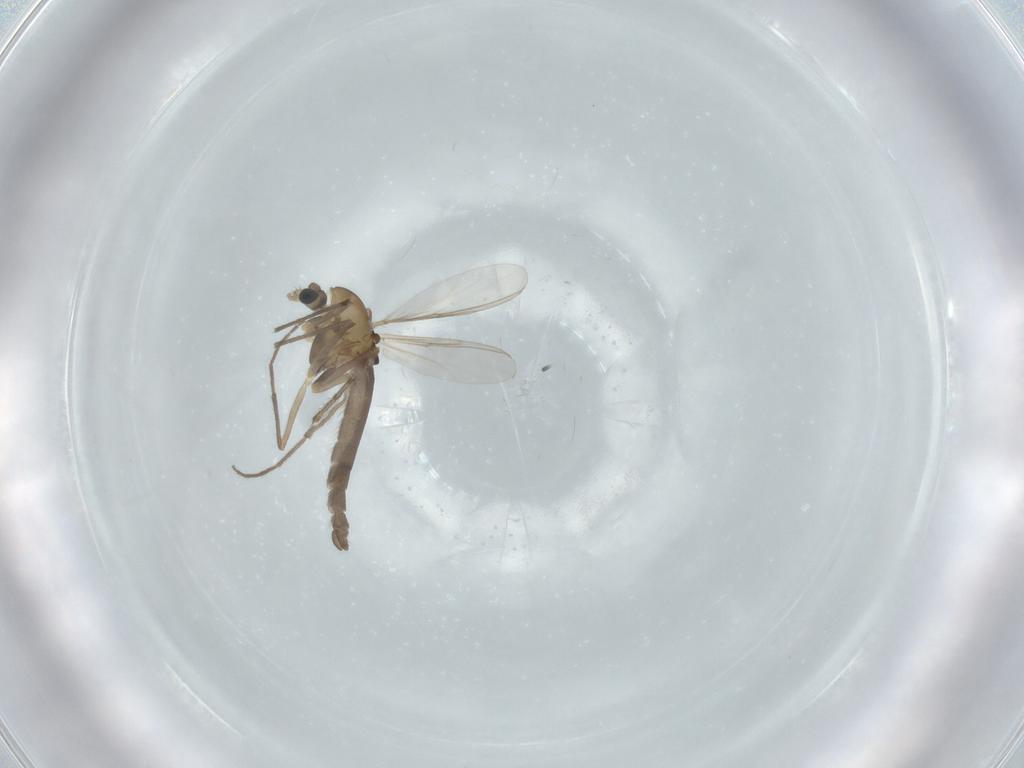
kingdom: Animalia
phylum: Arthropoda
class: Insecta
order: Diptera
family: Chironomidae
